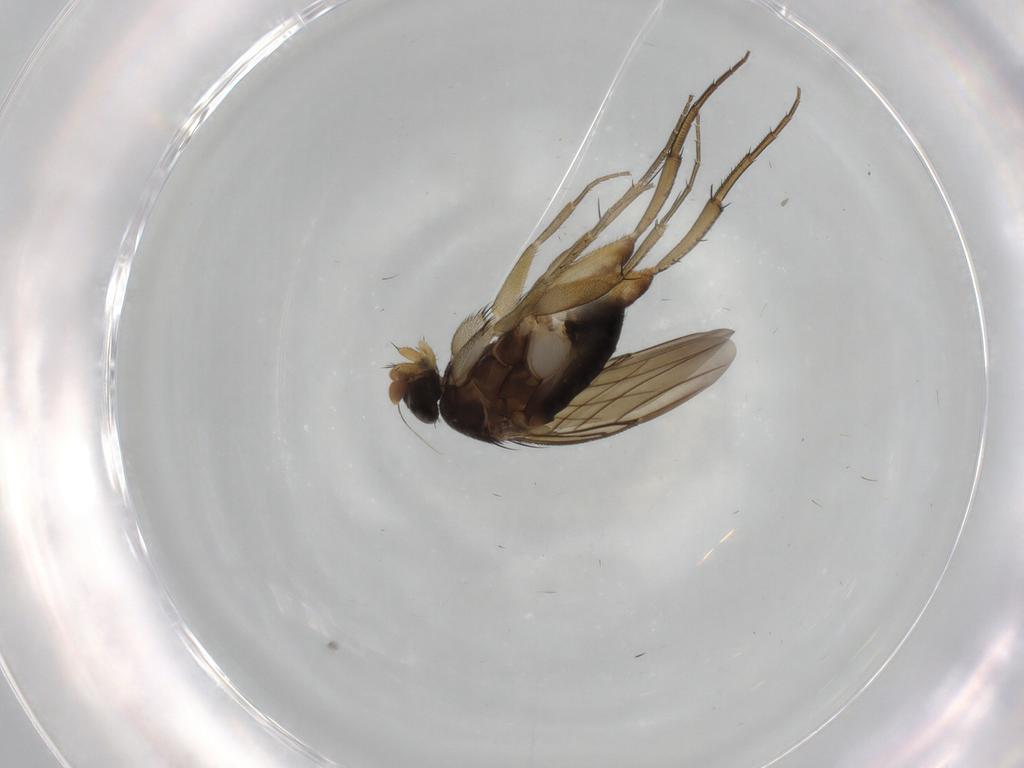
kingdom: Animalia
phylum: Arthropoda
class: Insecta
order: Diptera
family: Phoridae
